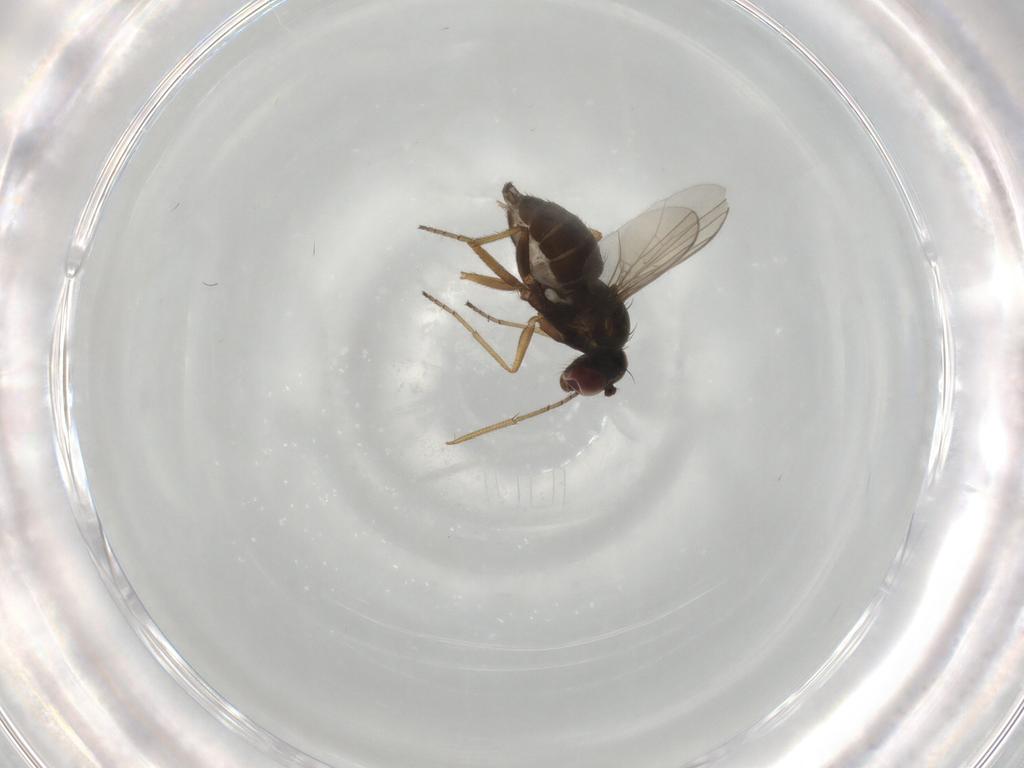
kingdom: Animalia
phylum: Arthropoda
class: Insecta
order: Diptera
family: Dolichopodidae
